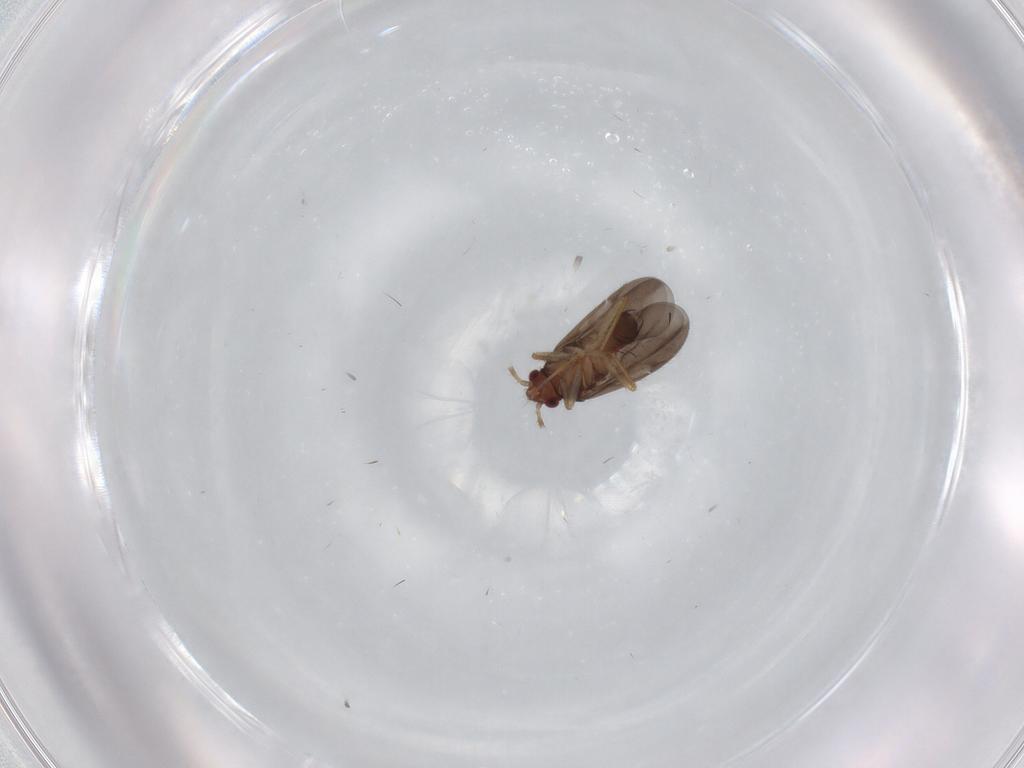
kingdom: Animalia
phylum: Arthropoda
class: Insecta
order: Hemiptera
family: Ceratocombidae
